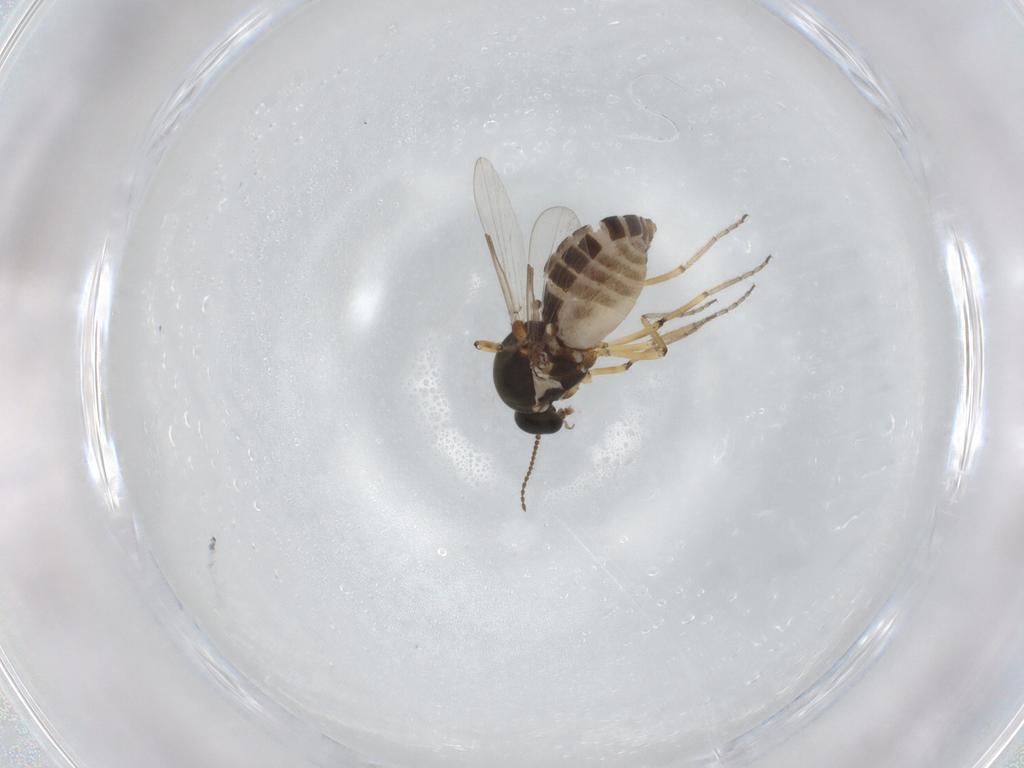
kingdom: Animalia
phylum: Arthropoda
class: Insecta
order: Diptera
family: Ceratopogonidae
